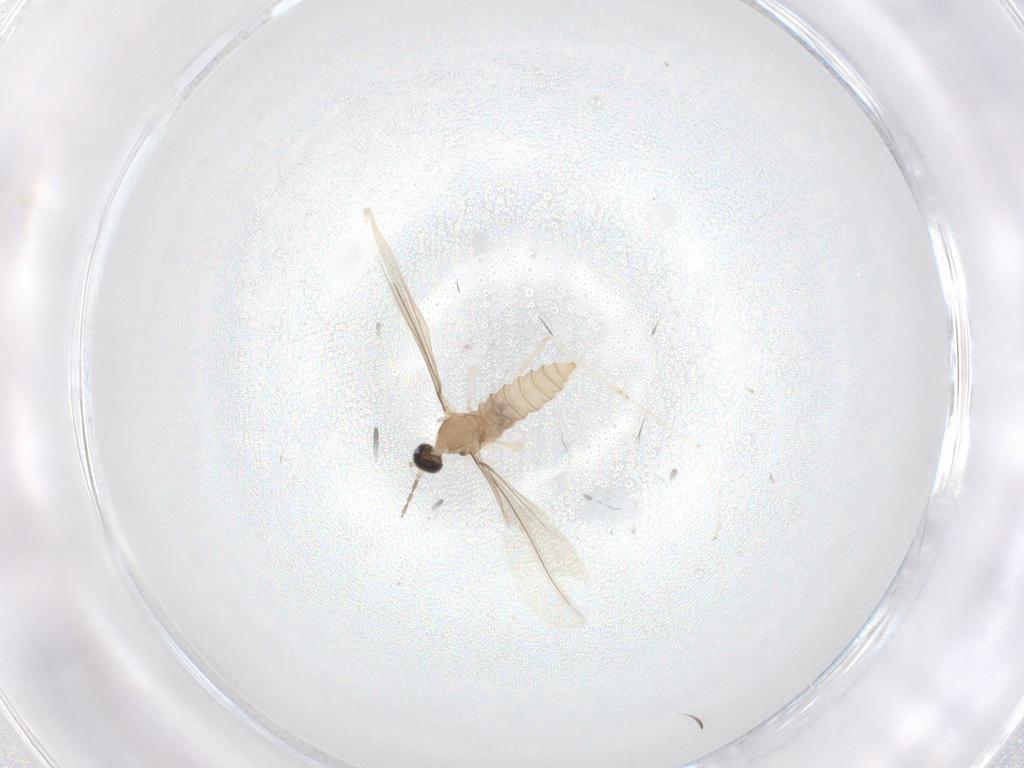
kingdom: Animalia
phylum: Arthropoda
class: Insecta
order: Diptera
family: Cecidomyiidae
